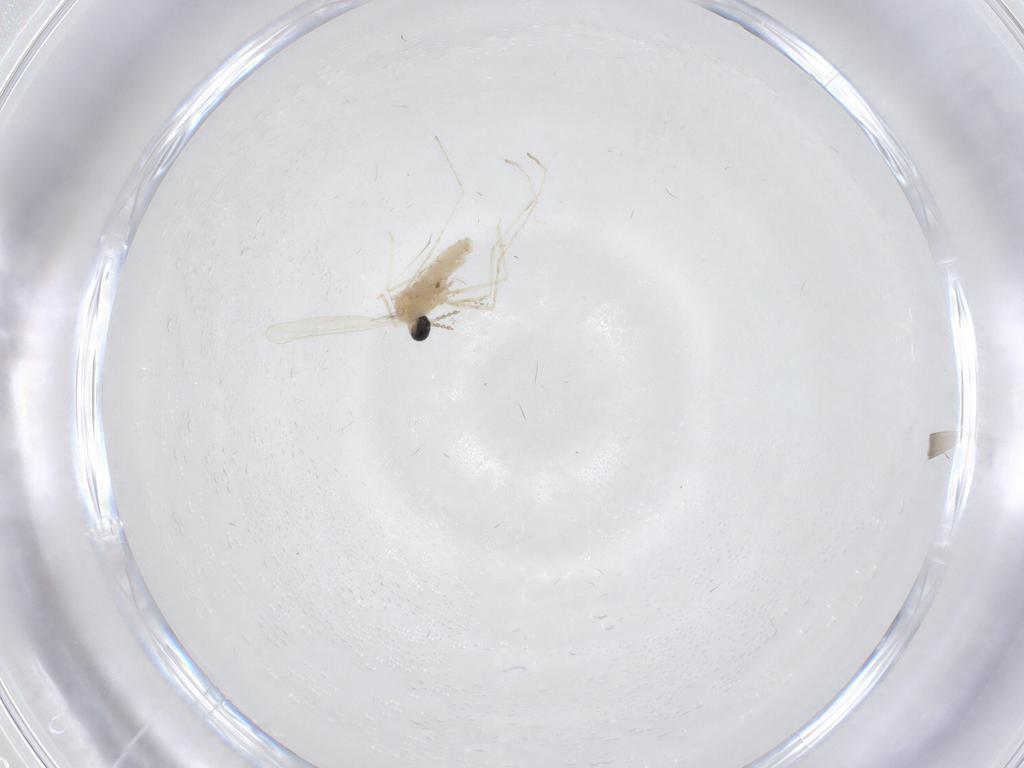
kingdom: Animalia
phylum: Arthropoda
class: Insecta
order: Diptera
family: Cecidomyiidae
